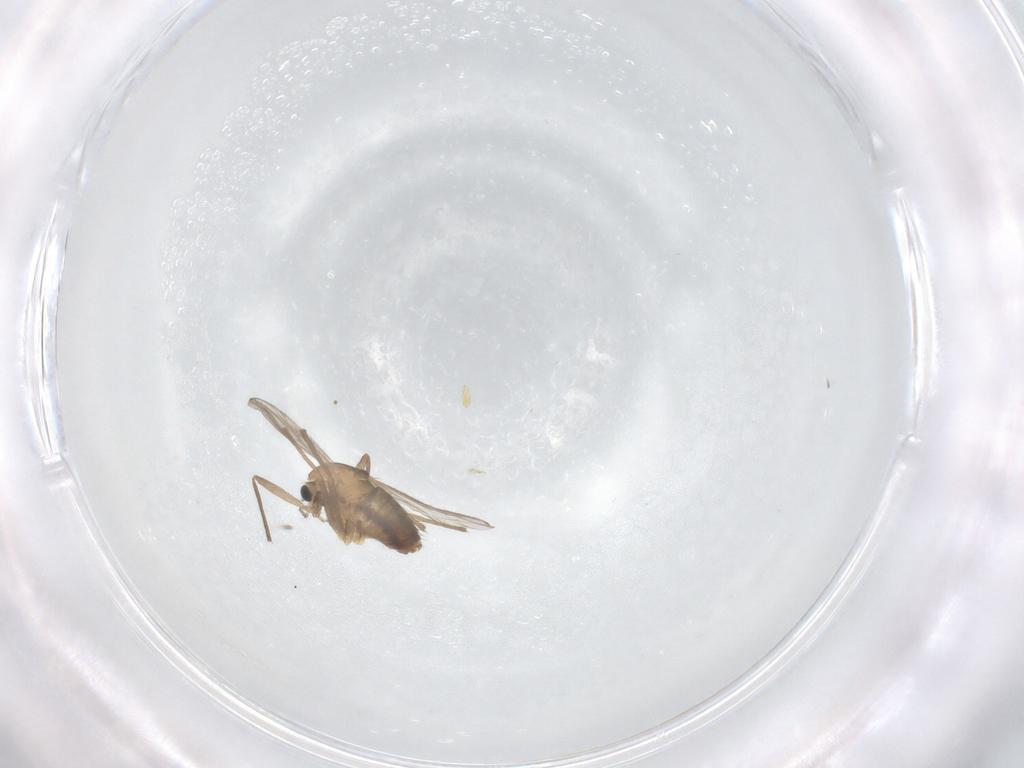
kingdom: Animalia
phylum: Arthropoda
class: Insecta
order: Diptera
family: Chironomidae
